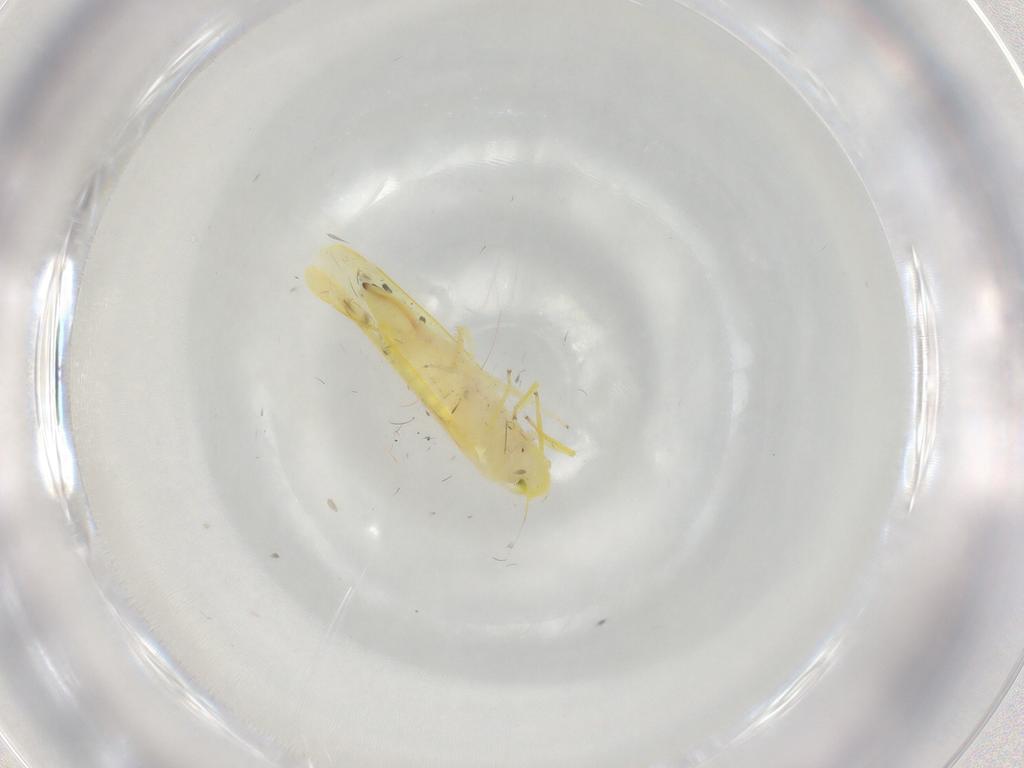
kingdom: Animalia
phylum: Arthropoda
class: Insecta
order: Hemiptera
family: Cicadellidae
